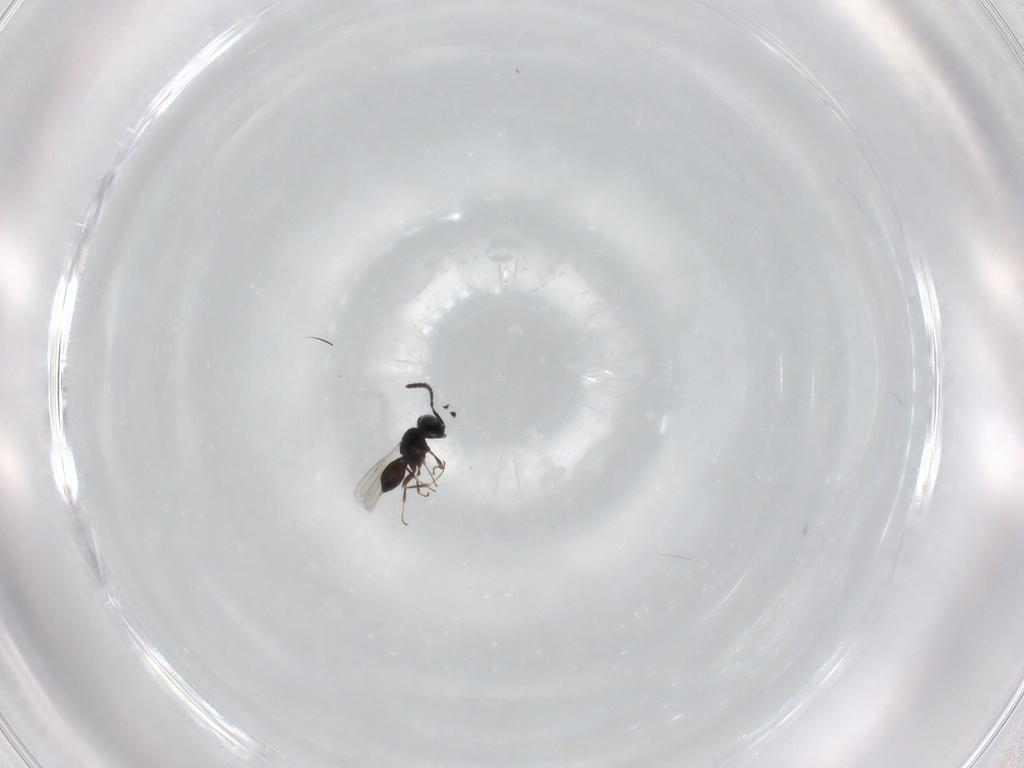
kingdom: Animalia
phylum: Arthropoda
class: Insecta
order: Hymenoptera
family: Scelionidae
